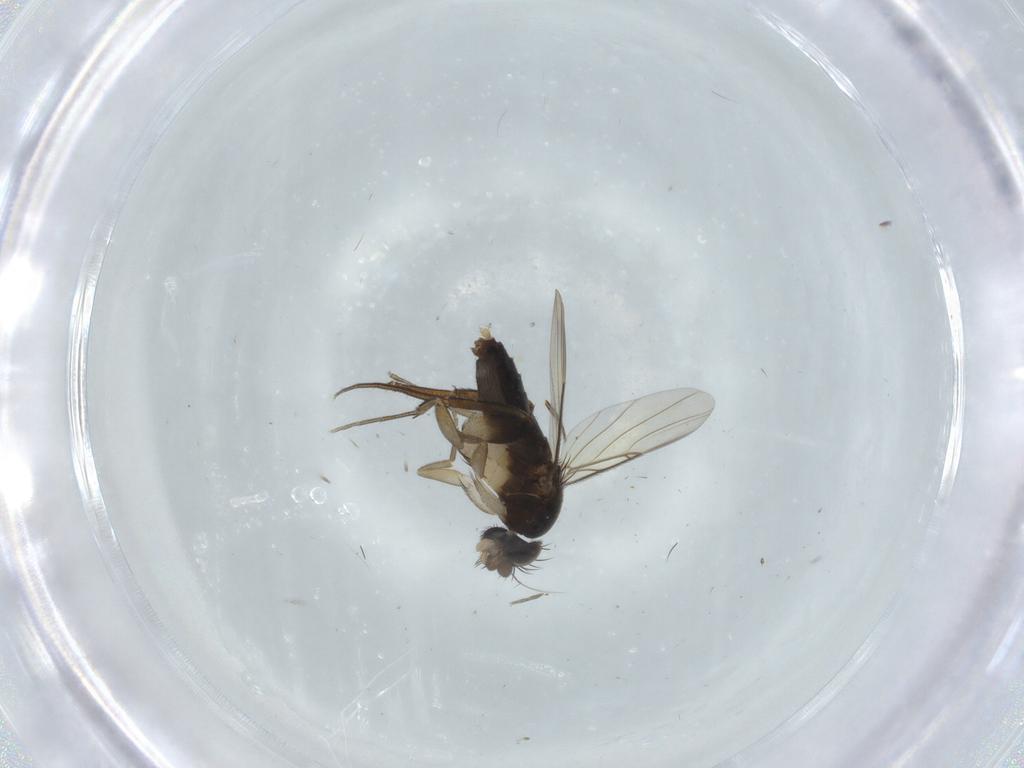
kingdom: Animalia
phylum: Arthropoda
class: Insecta
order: Diptera
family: Phoridae
